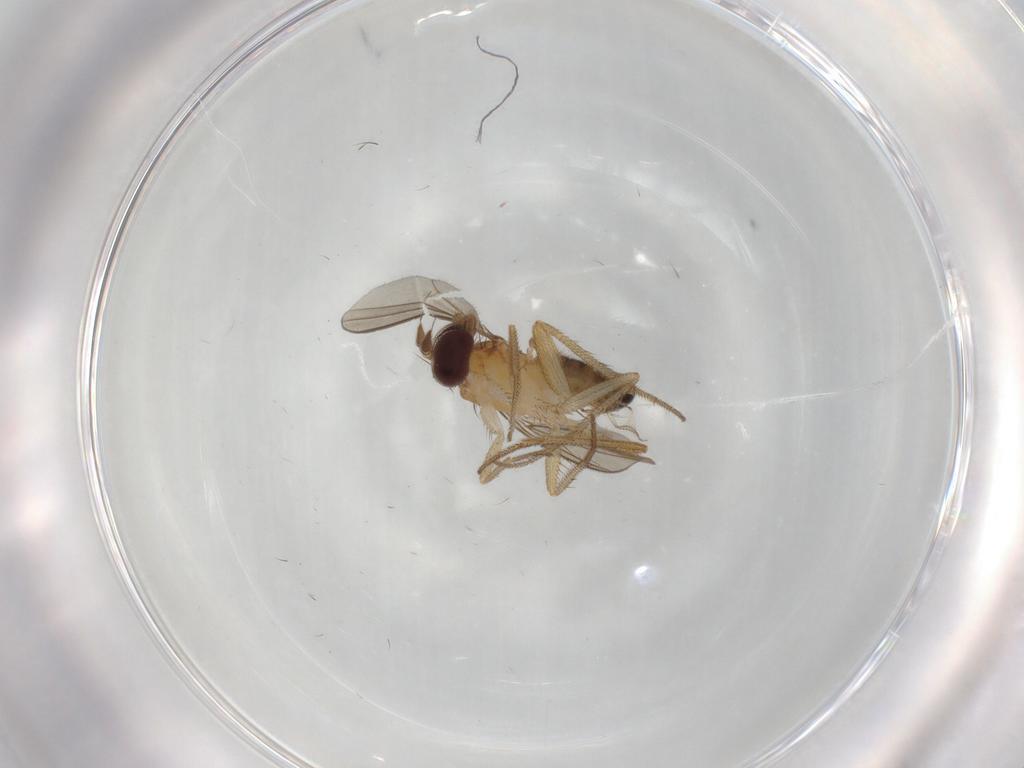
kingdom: Animalia
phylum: Arthropoda
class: Insecta
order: Diptera
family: Dolichopodidae
